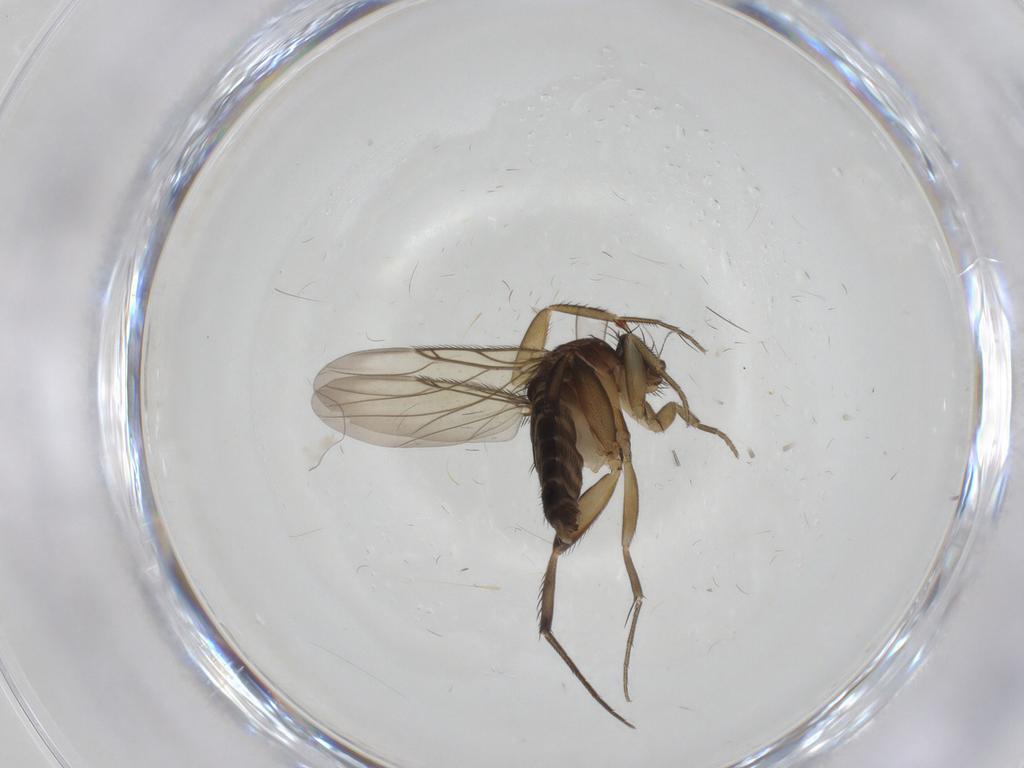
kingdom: Animalia
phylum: Arthropoda
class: Insecta
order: Diptera
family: Phoridae
